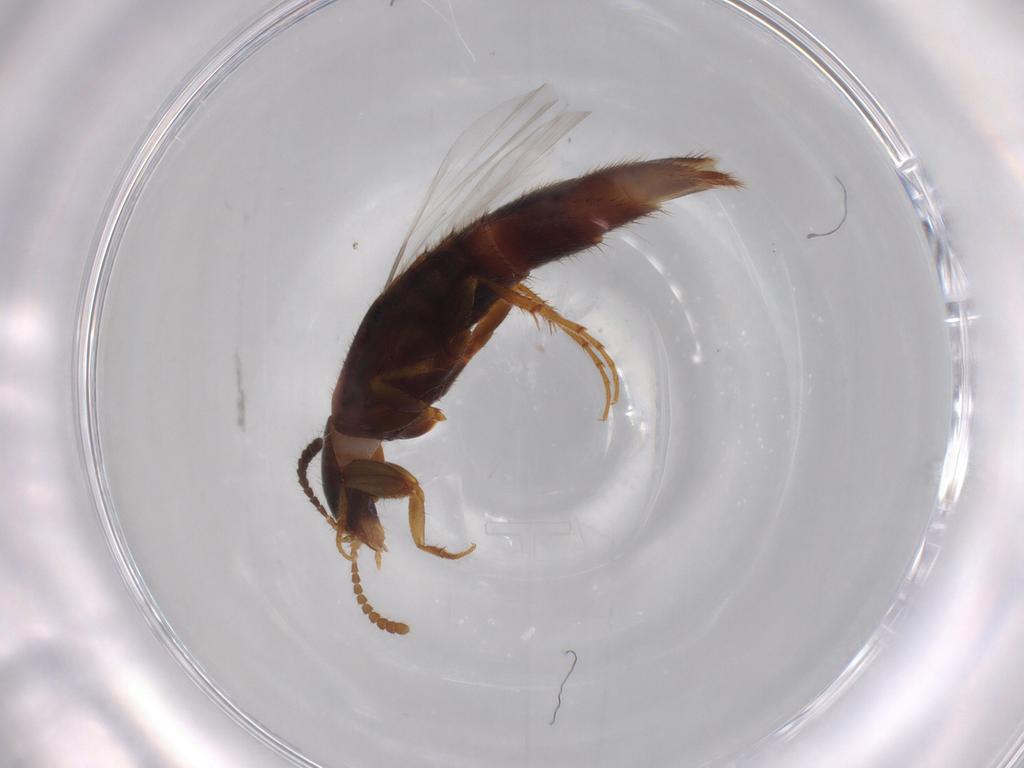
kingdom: Animalia
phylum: Arthropoda
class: Insecta
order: Coleoptera
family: Staphylinidae
